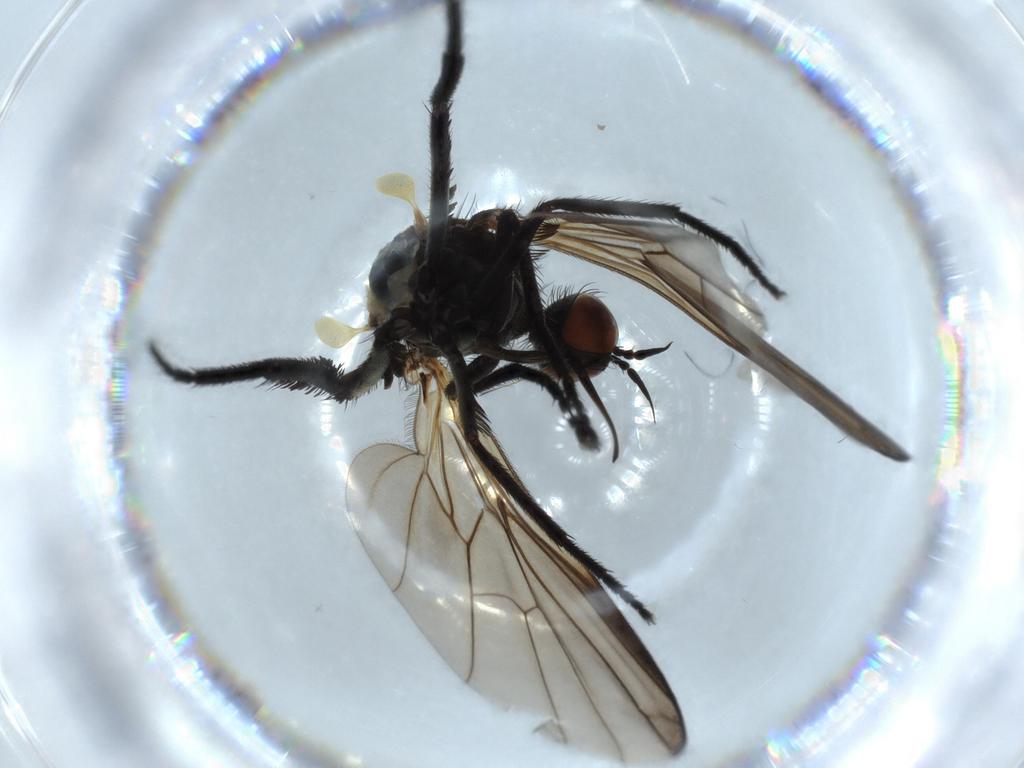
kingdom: Animalia
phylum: Arthropoda
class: Insecta
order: Diptera
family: Empididae
